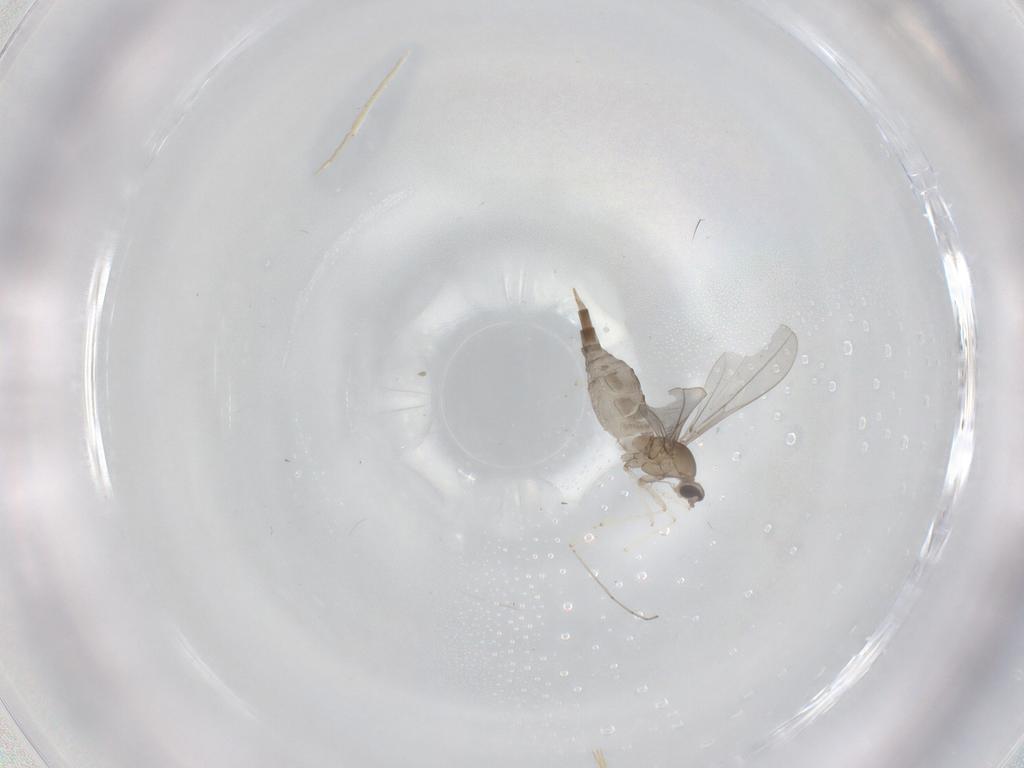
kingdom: Animalia
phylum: Arthropoda
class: Insecta
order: Diptera
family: Cecidomyiidae
